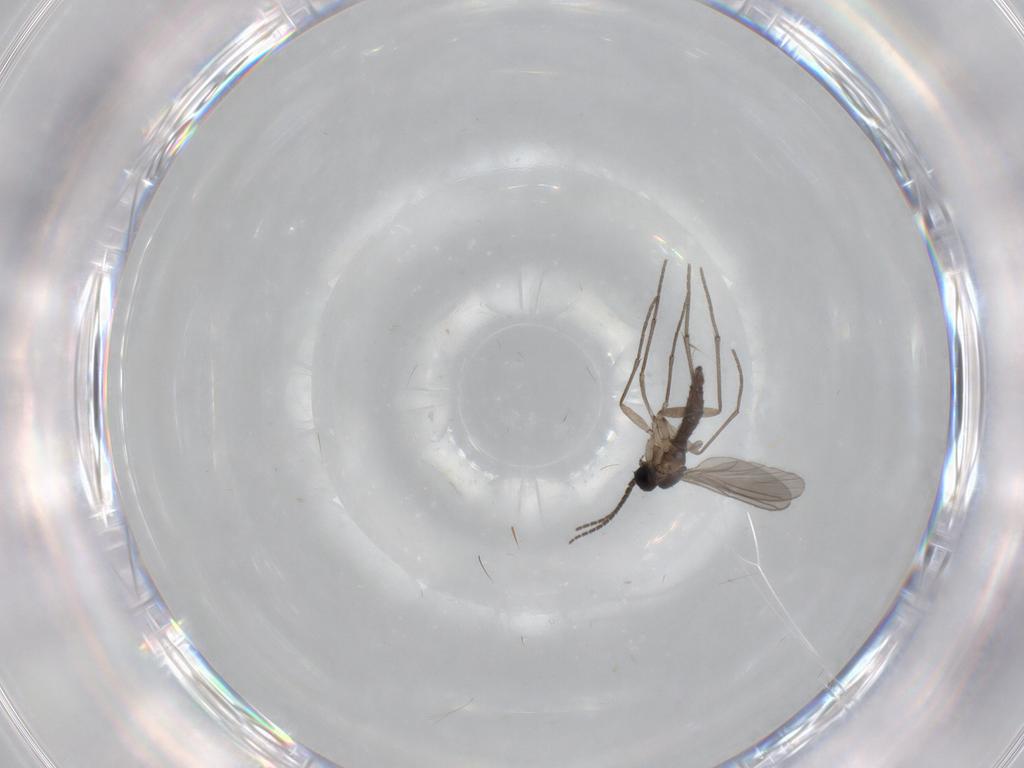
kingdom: Animalia
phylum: Arthropoda
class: Insecta
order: Diptera
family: Sciaridae
